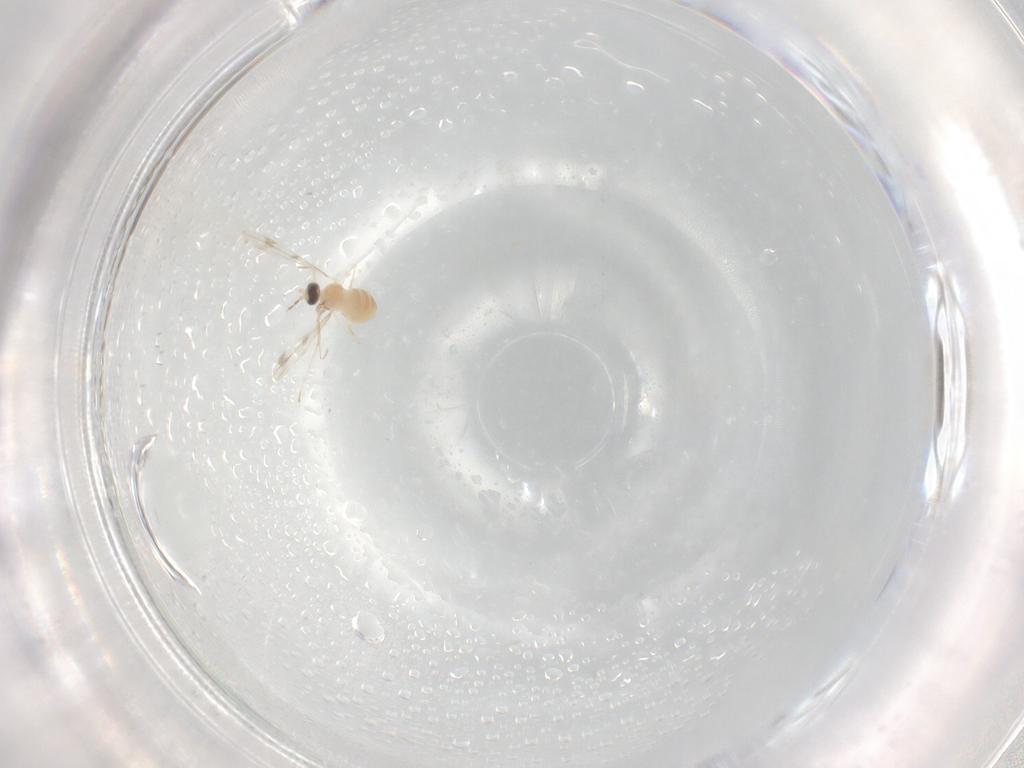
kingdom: Animalia
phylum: Arthropoda
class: Insecta
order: Diptera
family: Cecidomyiidae
